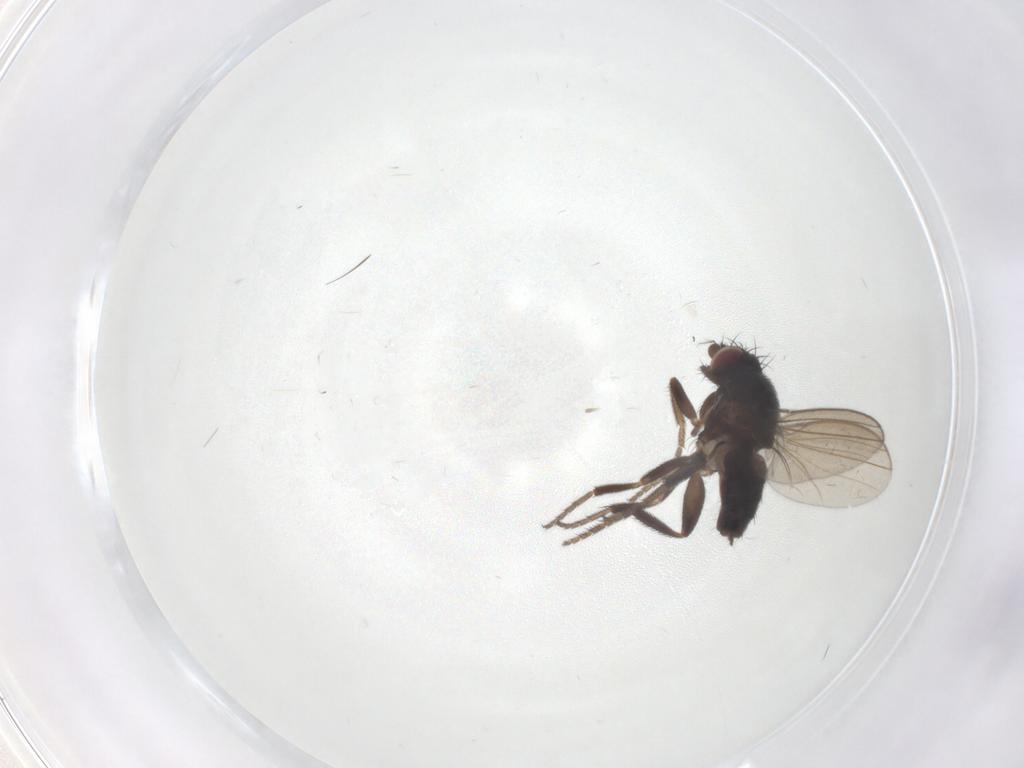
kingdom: Animalia
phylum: Arthropoda
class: Insecta
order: Diptera
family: Milichiidae
